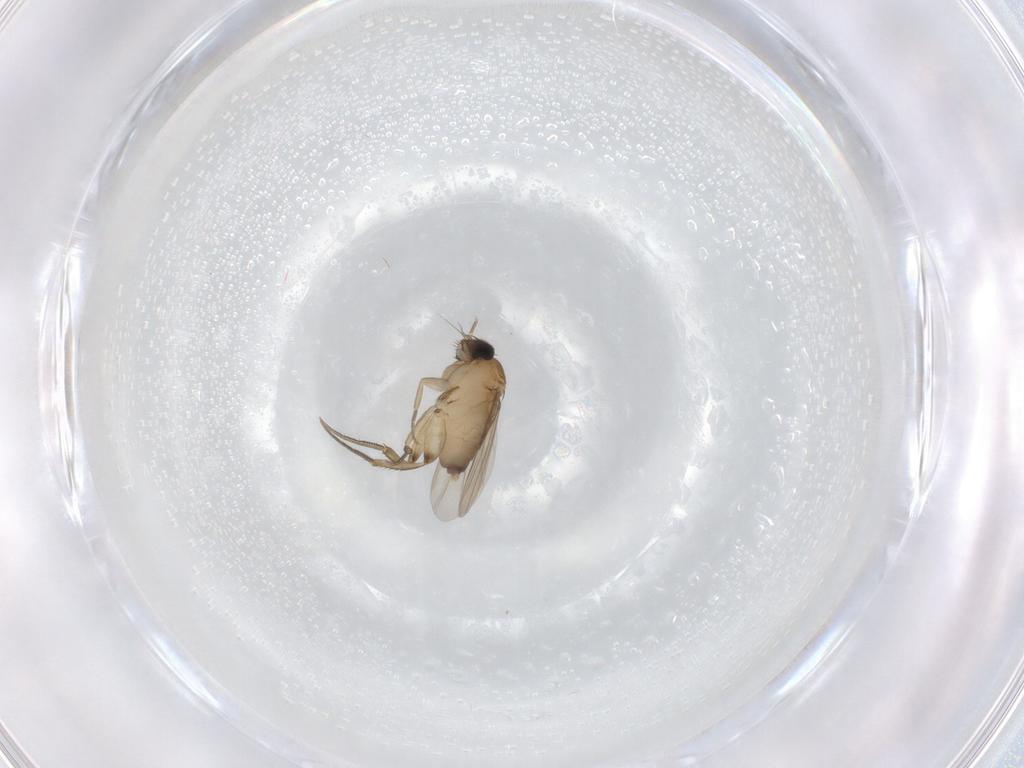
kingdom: Animalia
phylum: Arthropoda
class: Insecta
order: Diptera
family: Phoridae
